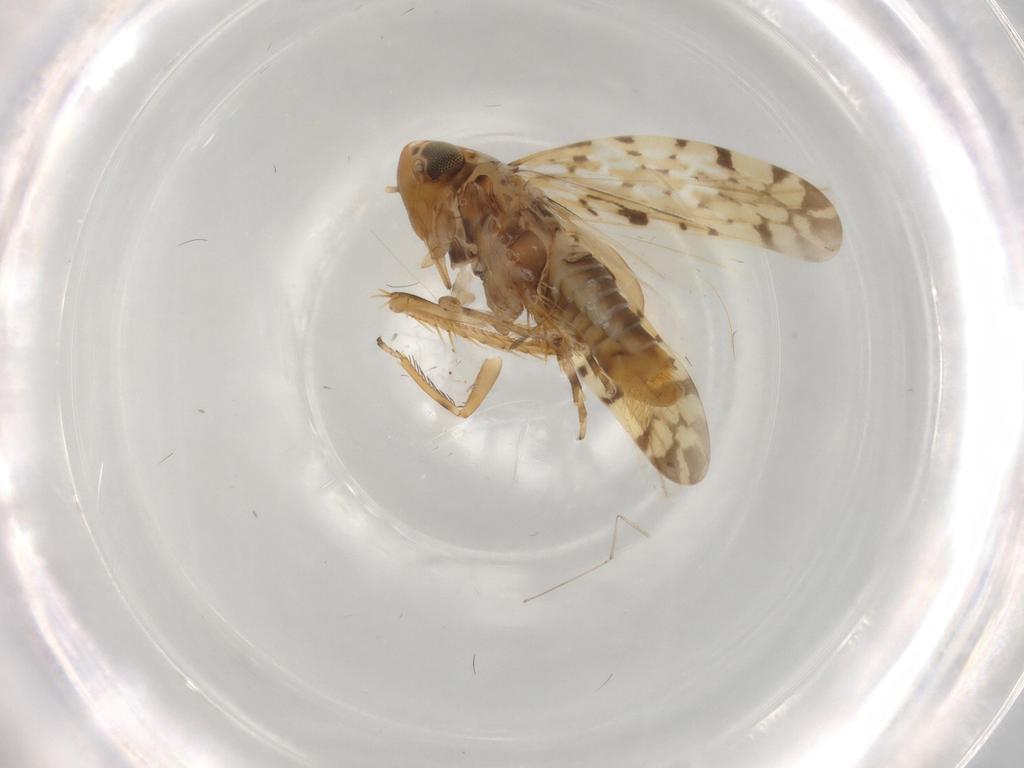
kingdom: Animalia
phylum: Arthropoda
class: Insecta
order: Hemiptera
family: Cicadellidae
